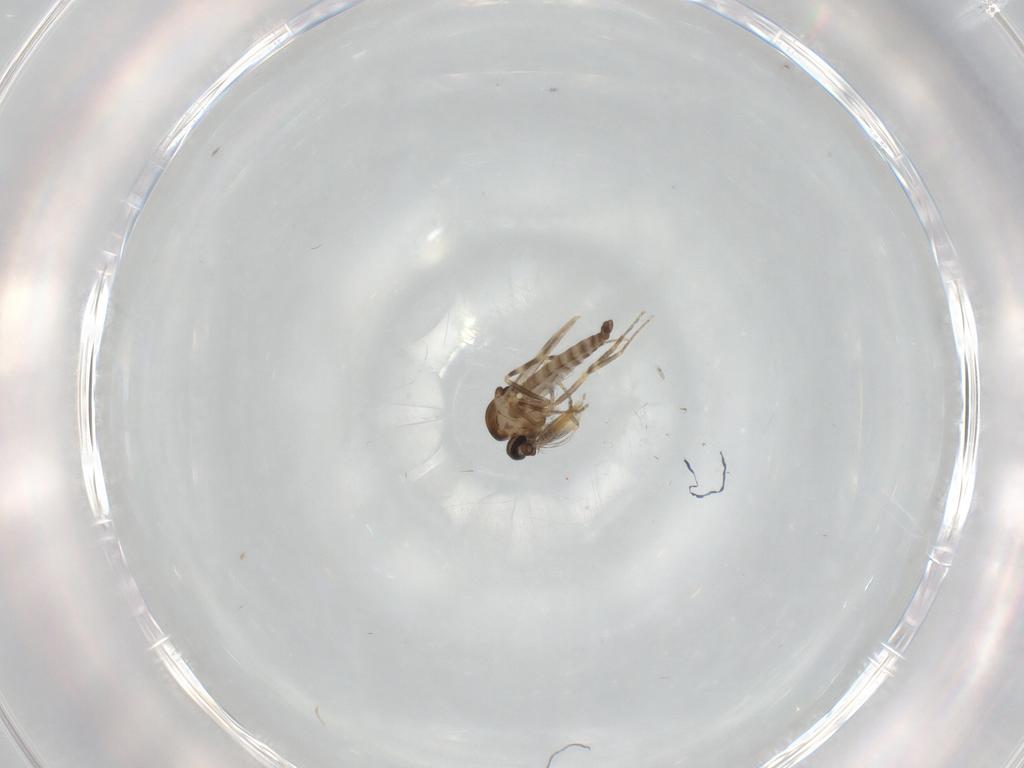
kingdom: Animalia
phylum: Arthropoda
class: Insecta
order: Diptera
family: Ceratopogonidae
